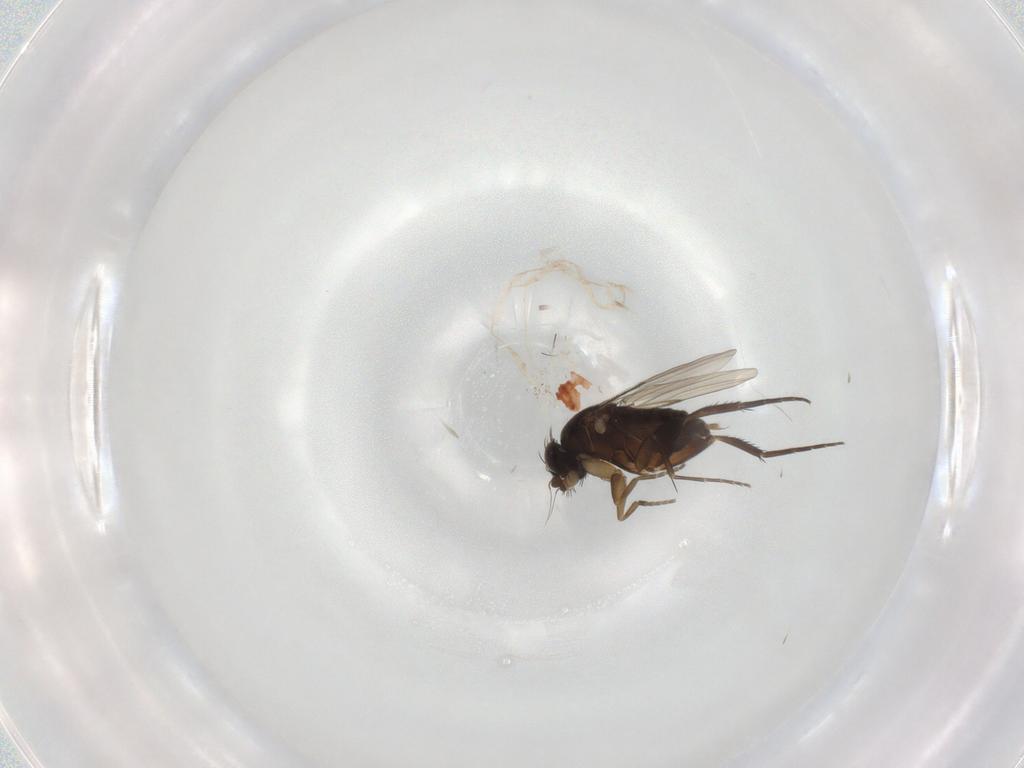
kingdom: Animalia
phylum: Arthropoda
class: Insecta
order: Diptera
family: Phoridae
